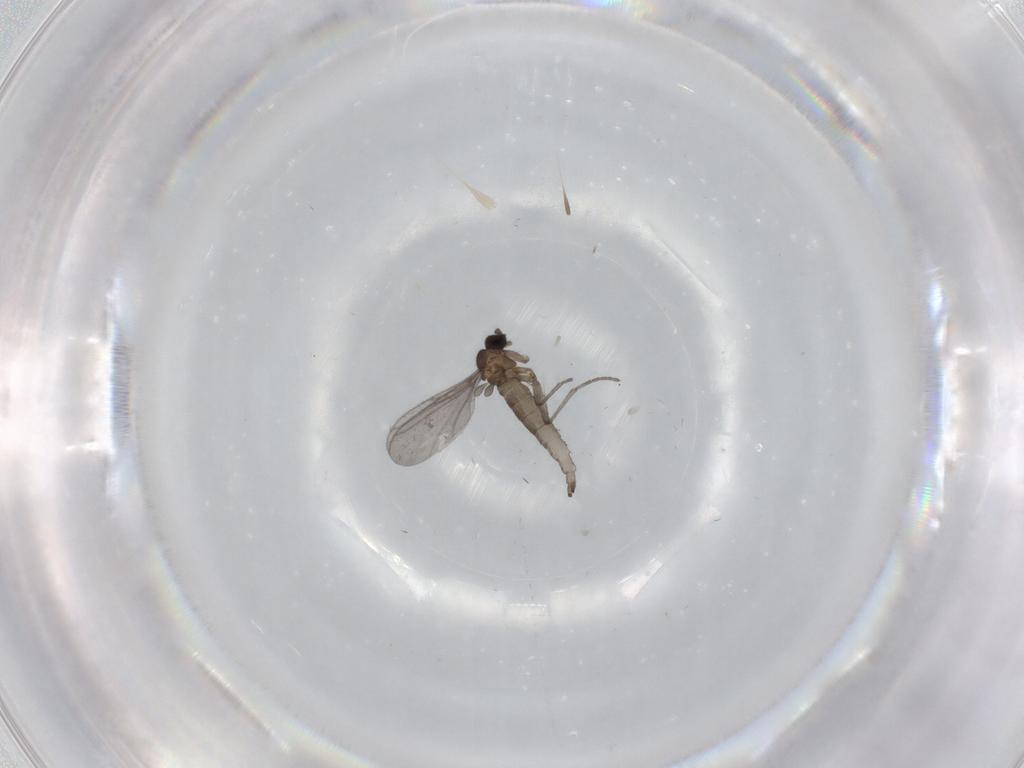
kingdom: Animalia
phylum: Arthropoda
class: Insecta
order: Diptera
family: Sciaridae
